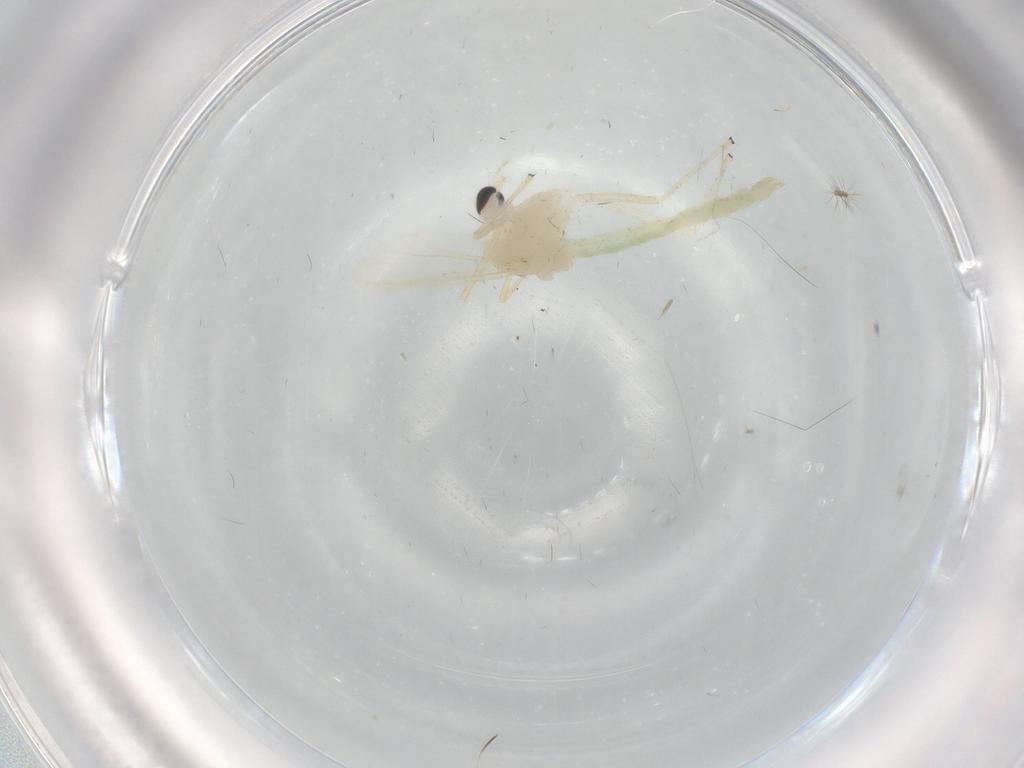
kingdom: Animalia
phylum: Arthropoda
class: Insecta
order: Diptera
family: Chironomidae
